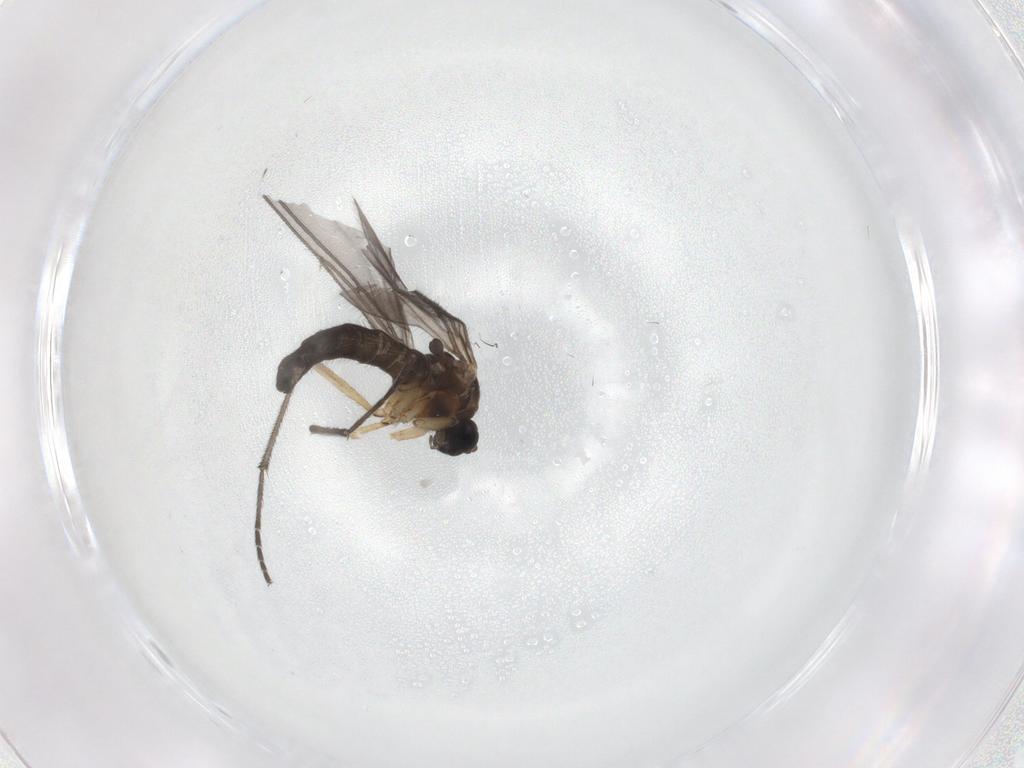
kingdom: Animalia
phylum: Arthropoda
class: Insecta
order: Diptera
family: Sciaridae
